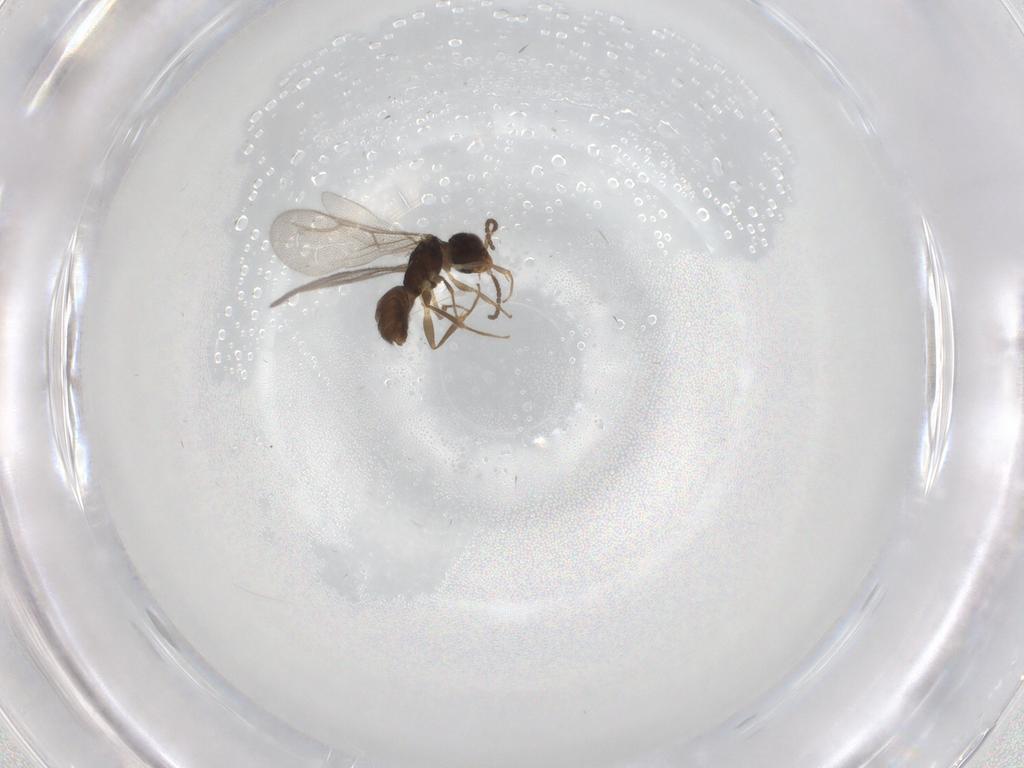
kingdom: Animalia
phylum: Arthropoda
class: Insecta
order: Hymenoptera
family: Bethylidae
